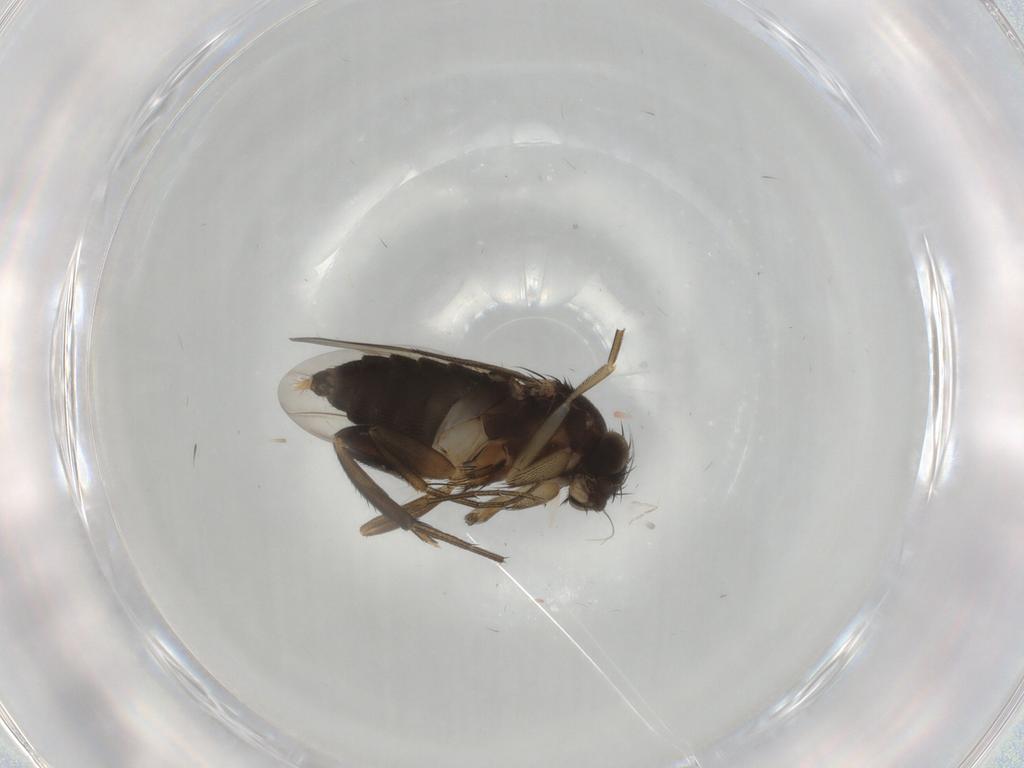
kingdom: Animalia
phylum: Arthropoda
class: Insecta
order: Diptera
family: Phoridae
